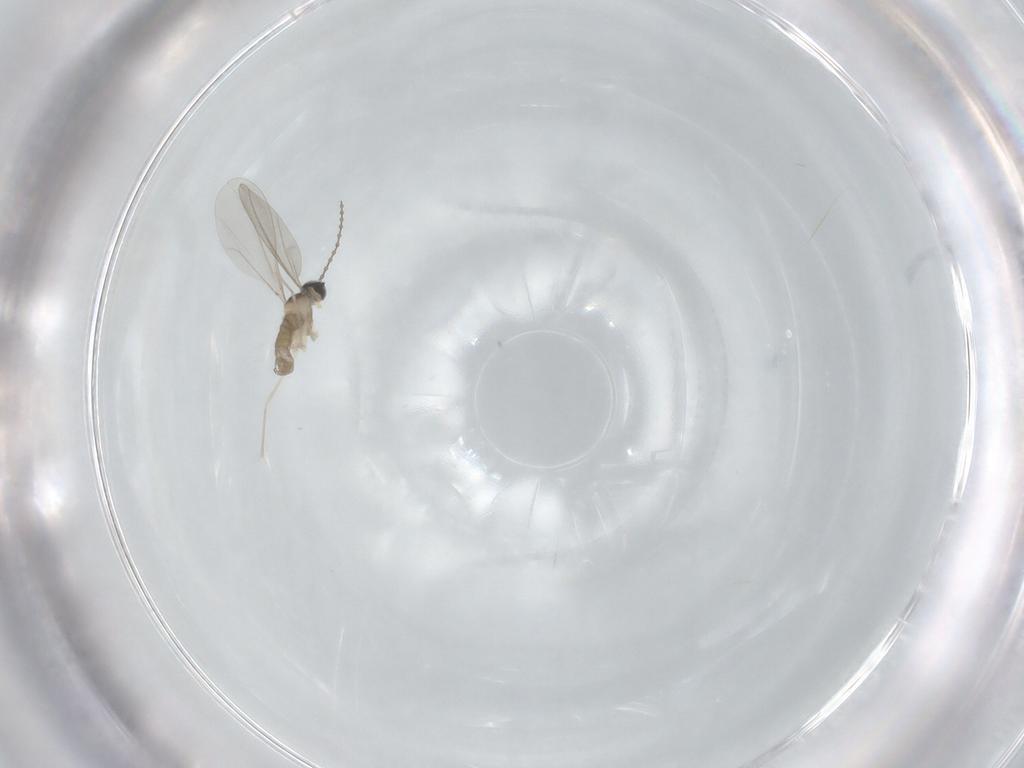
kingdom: Animalia
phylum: Arthropoda
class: Insecta
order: Diptera
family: Cecidomyiidae
